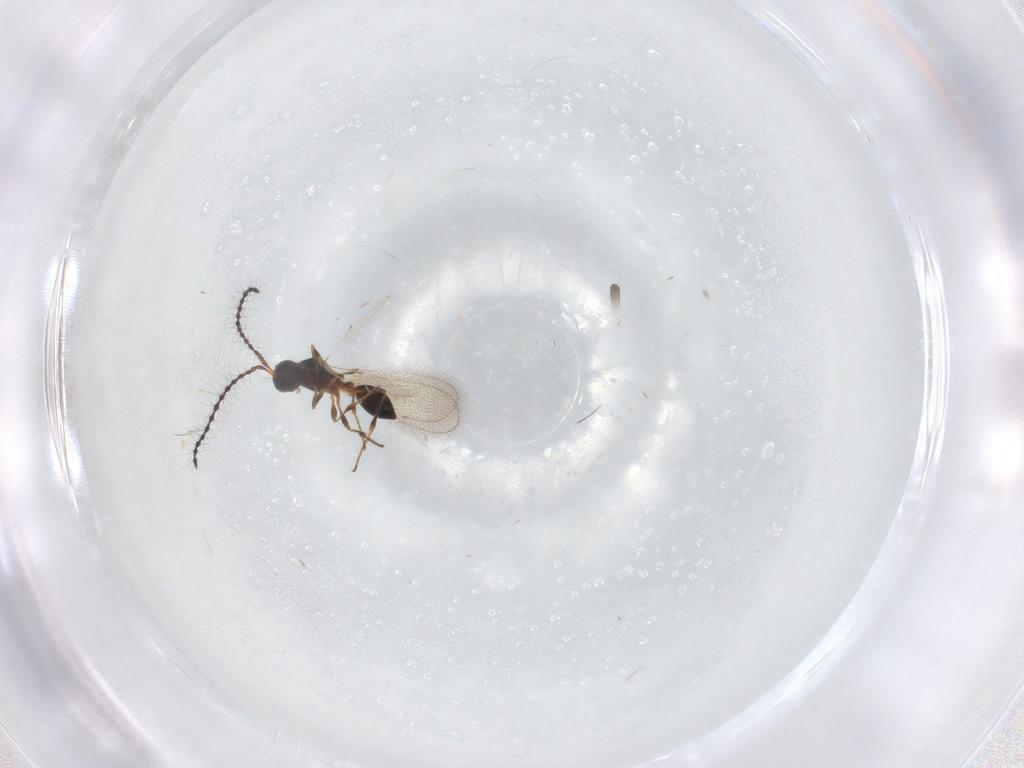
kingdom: Animalia
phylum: Arthropoda
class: Insecta
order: Hymenoptera
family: Diapriidae
